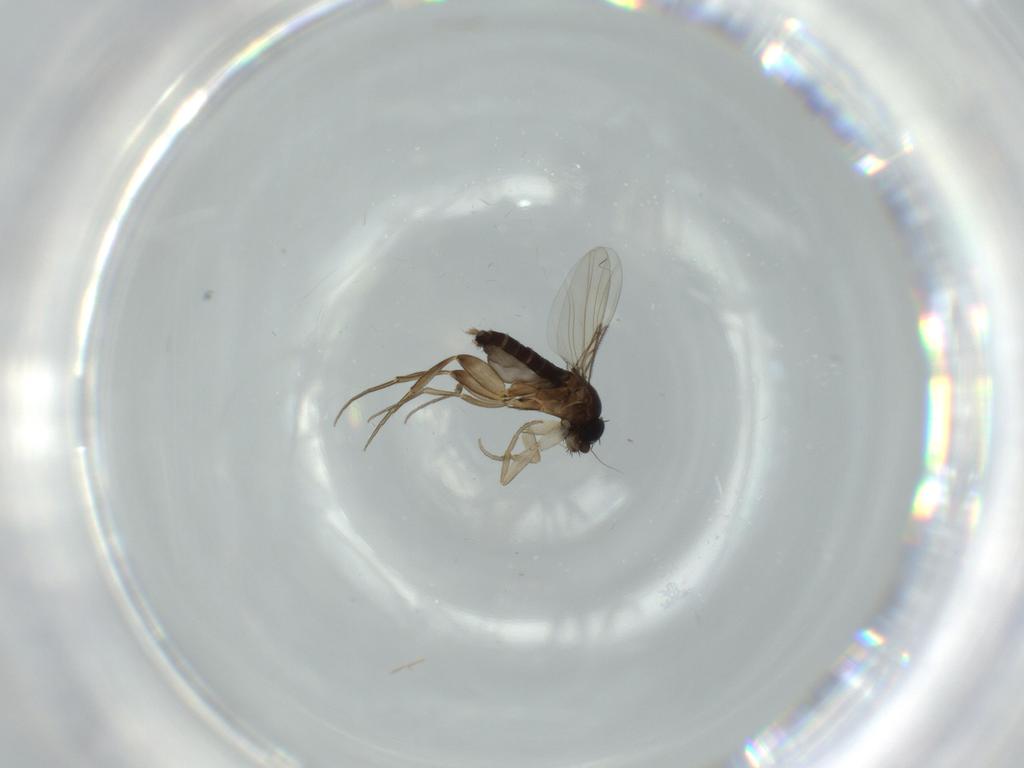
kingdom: Animalia
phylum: Arthropoda
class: Insecta
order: Diptera
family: Phoridae
